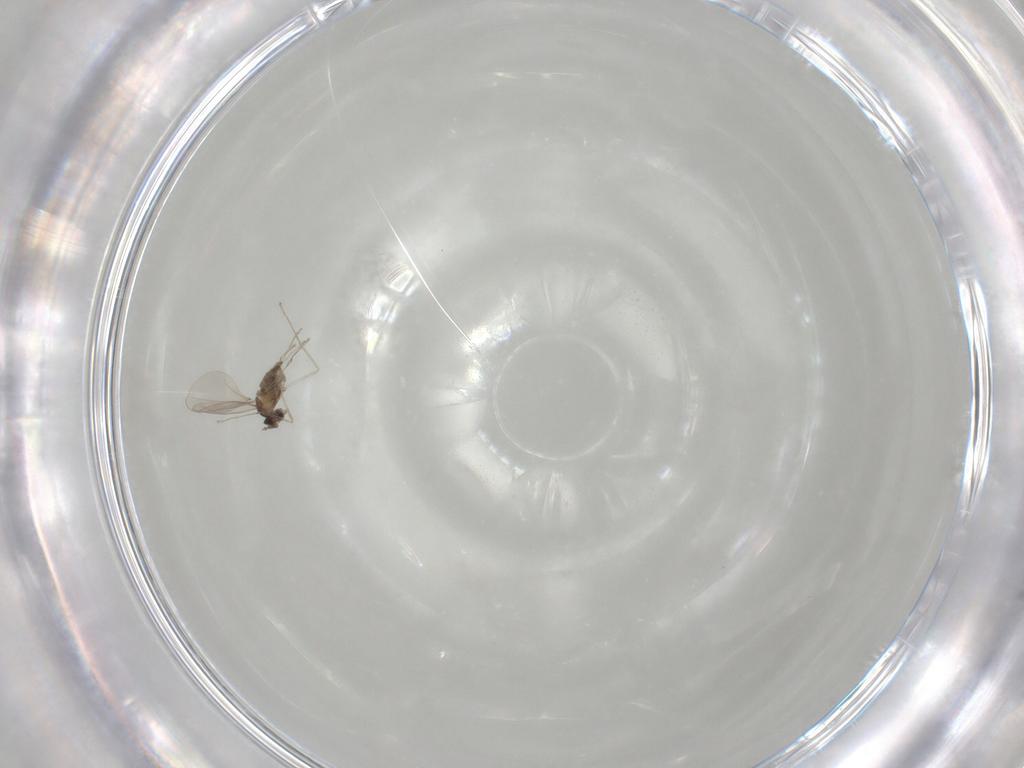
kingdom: Animalia
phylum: Arthropoda
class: Insecta
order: Diptera
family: Cecidomyiidae
